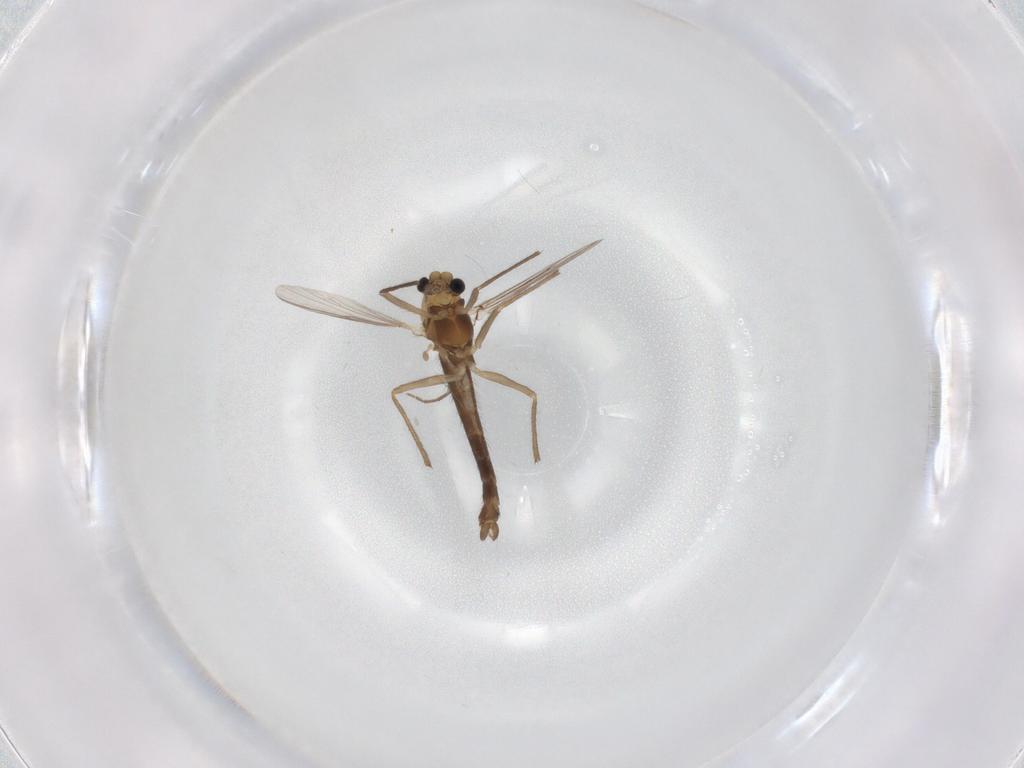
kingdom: Animalia
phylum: Arthropoda
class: Insecta
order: Diptera
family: Chironomidae
